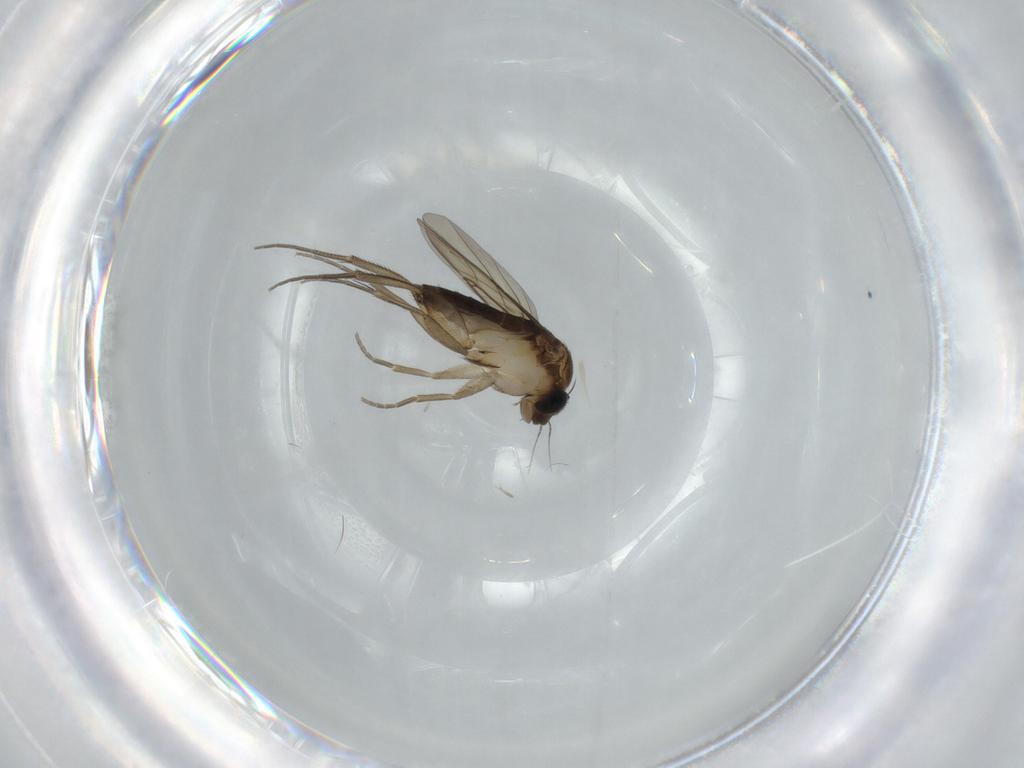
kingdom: Animalia
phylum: Arthropoda
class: Insecta
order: Diptera
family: Phoridae
